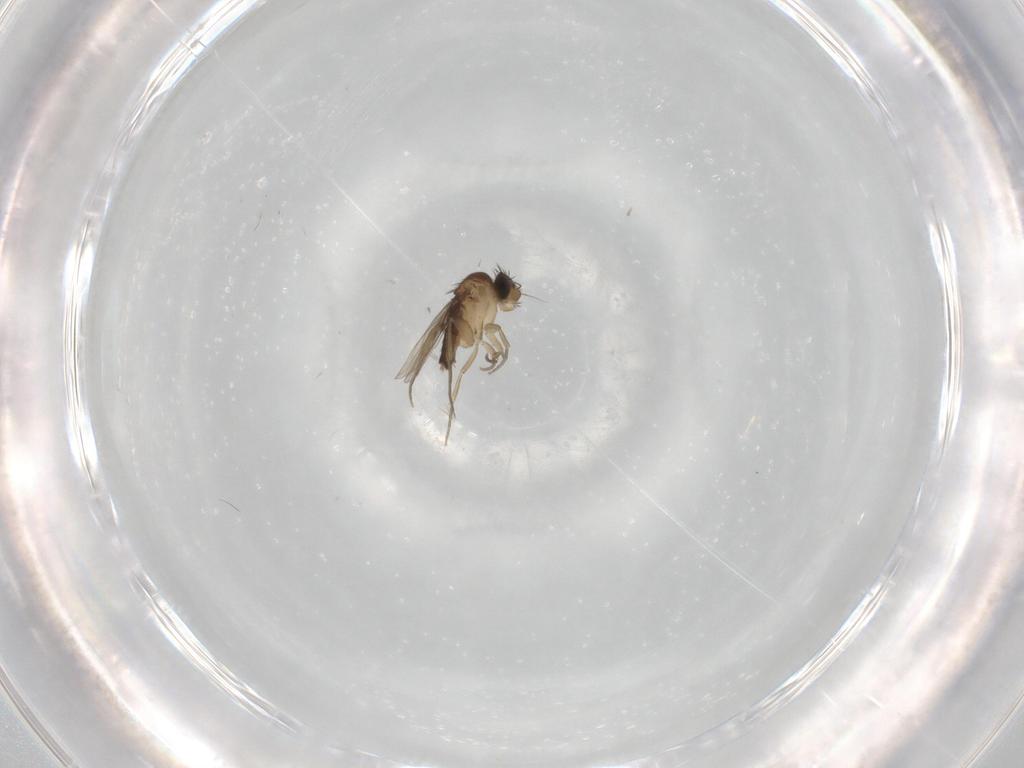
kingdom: Animalia
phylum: Arthropoda
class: Insecta
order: Diptera
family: Phoridae
